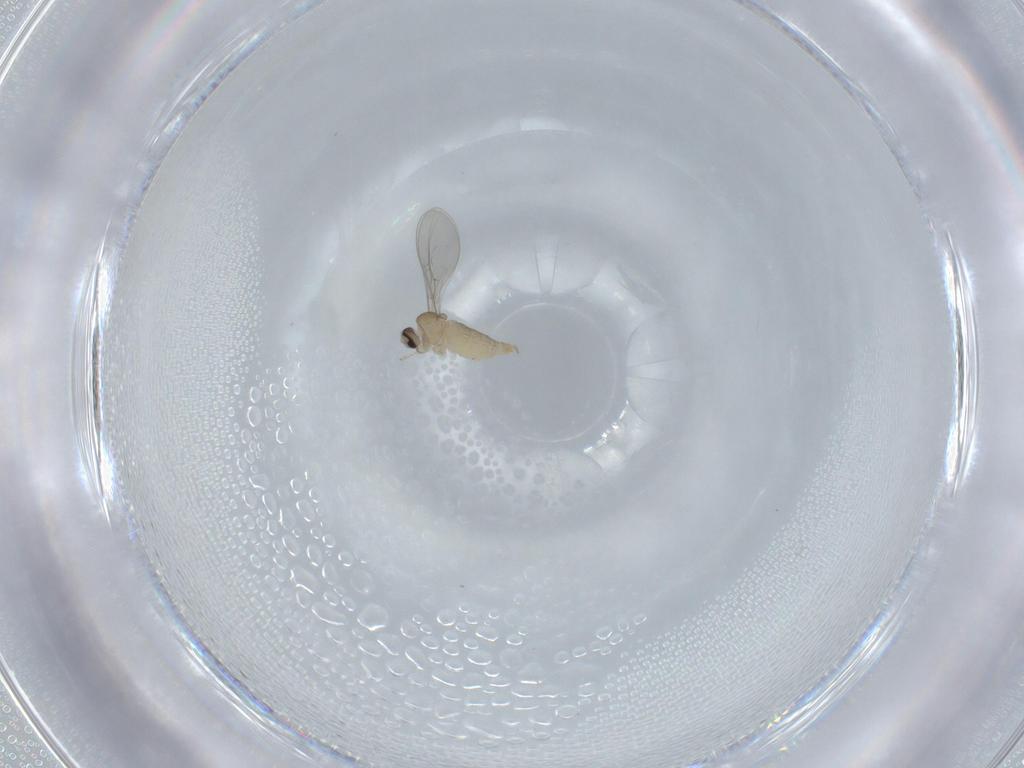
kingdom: Animalia
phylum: Arthropoda
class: Insecta
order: Diptera
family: Cecidomyiidae
